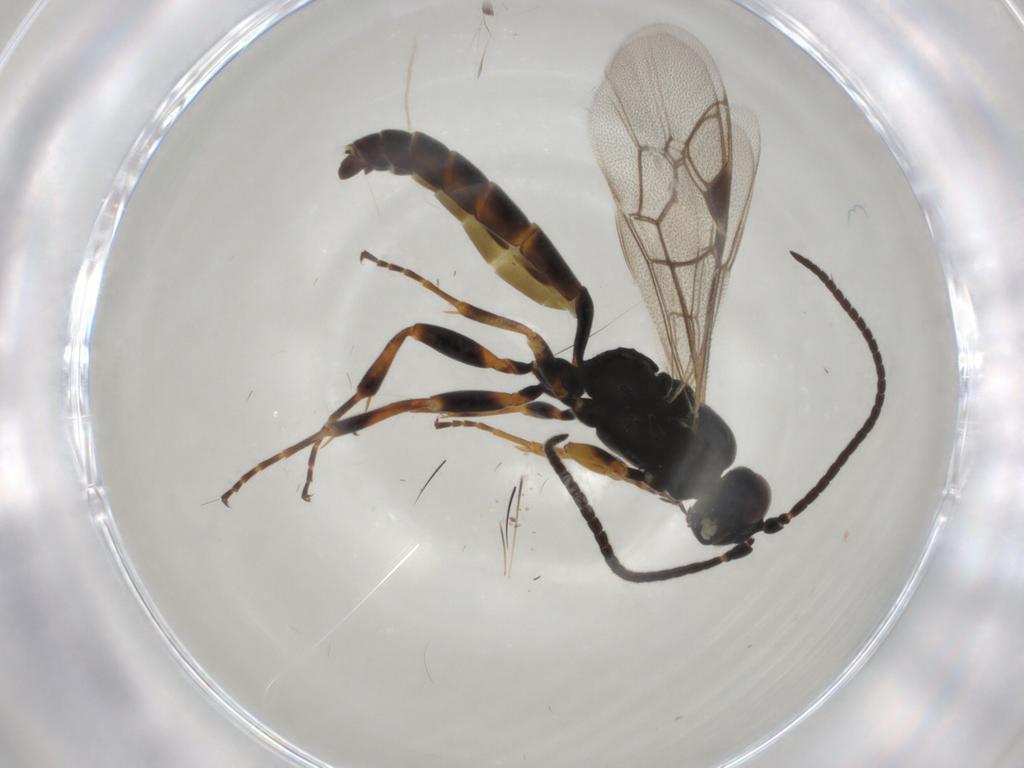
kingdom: Animalia
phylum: Arthropoda
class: Insecta
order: Hymenoptera
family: Ichneumonidae
